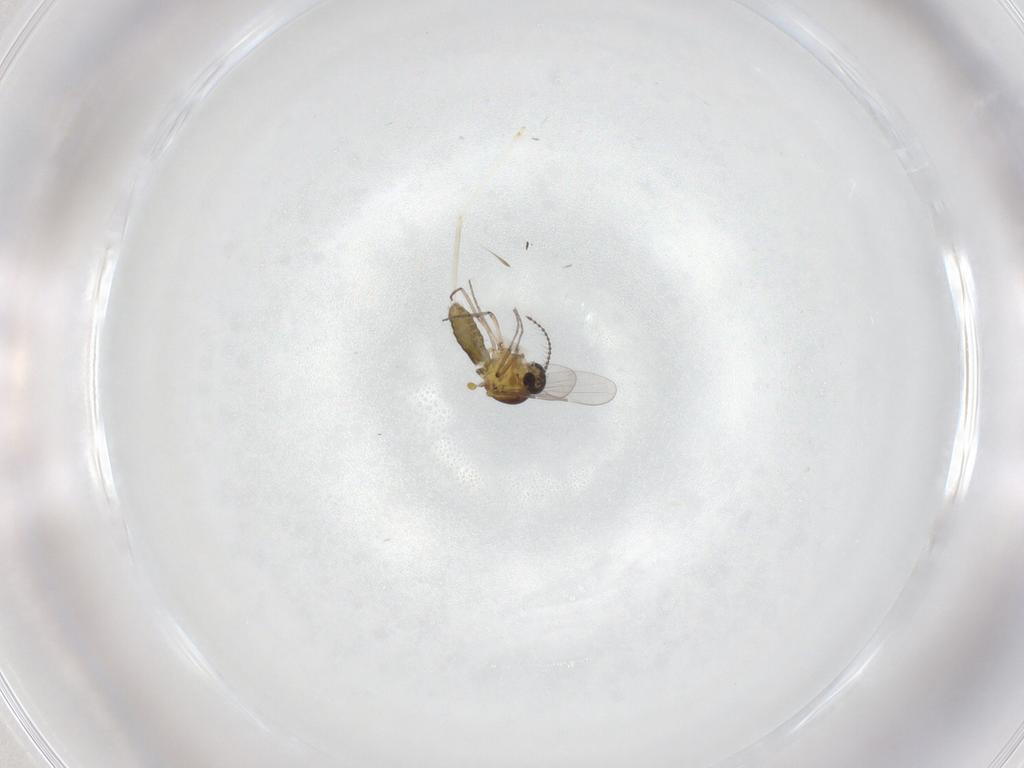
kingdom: Animalia
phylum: Arthropoda
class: Insecta
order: Diptera
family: Ceratopogonidae
